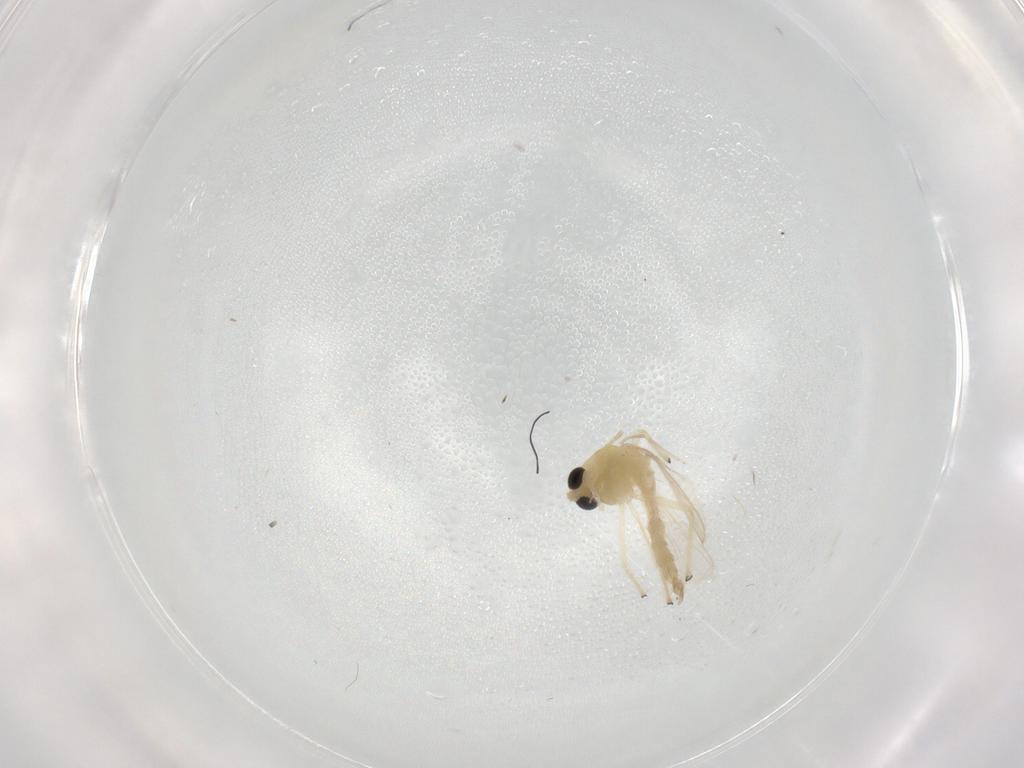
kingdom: Animalia
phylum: Arthropoda
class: Insecta
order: Diptera
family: Chironomidae
